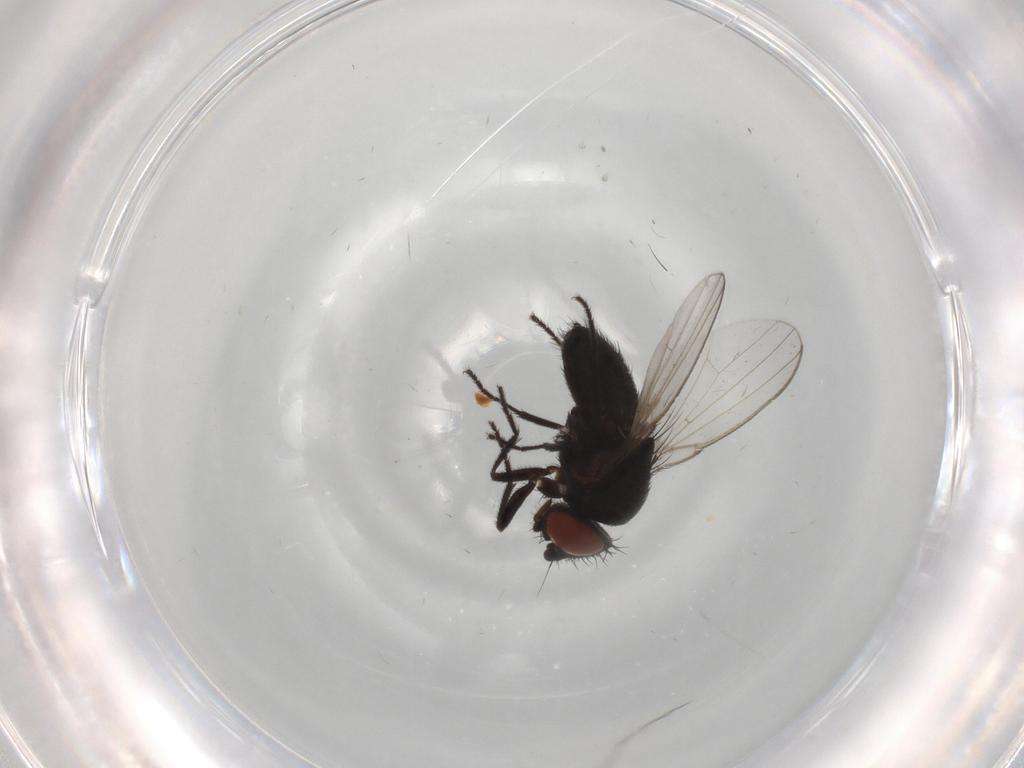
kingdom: Animalia
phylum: Arthropoda
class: Insecta
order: Diptera
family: Milichiidae
